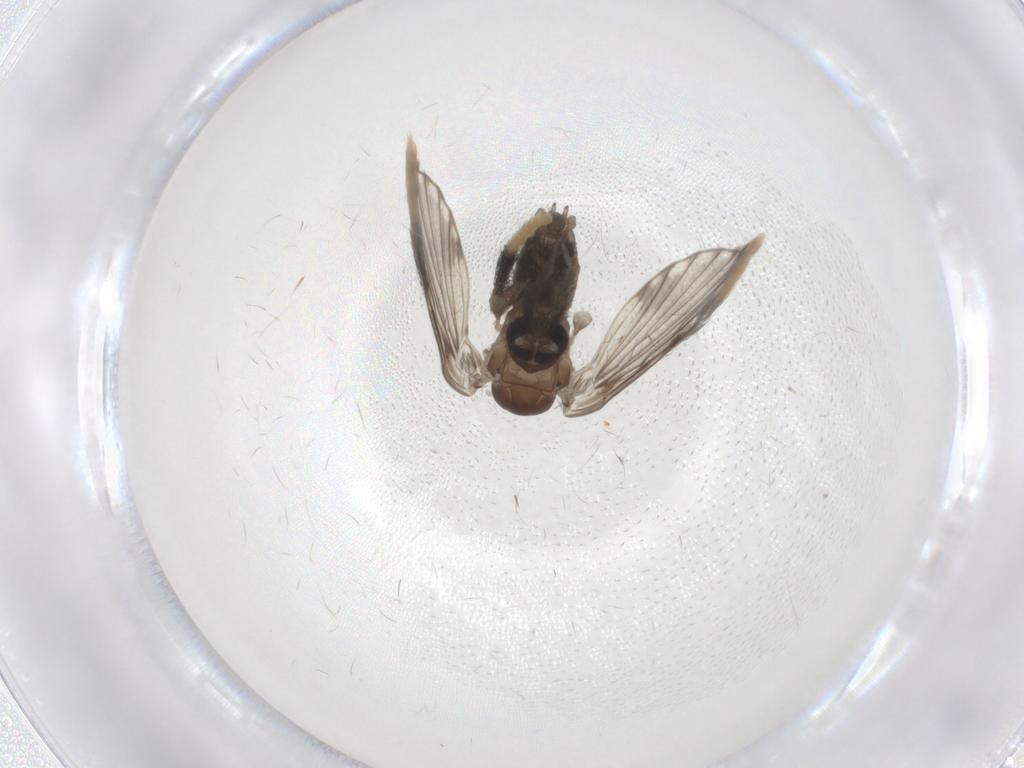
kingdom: Animalia
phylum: Arthropoda
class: Insecta
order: Diptera
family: Psychodidae
